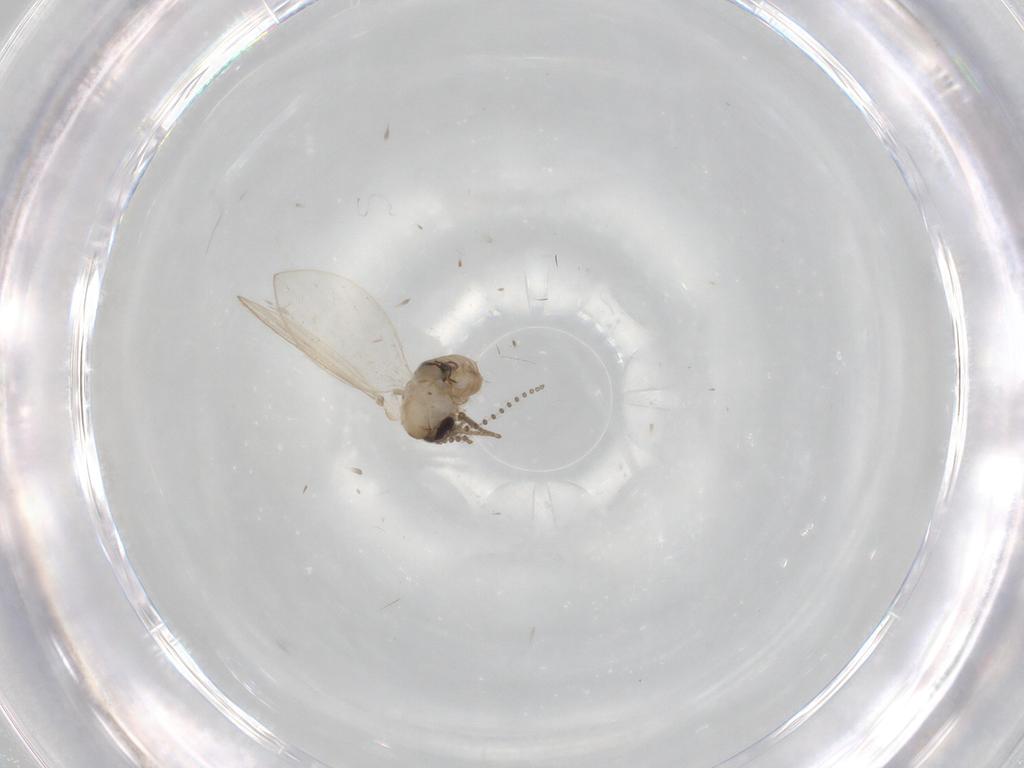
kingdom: Animalia
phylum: Arthropoda
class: Insecta
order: Diptera
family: Psychodidae
